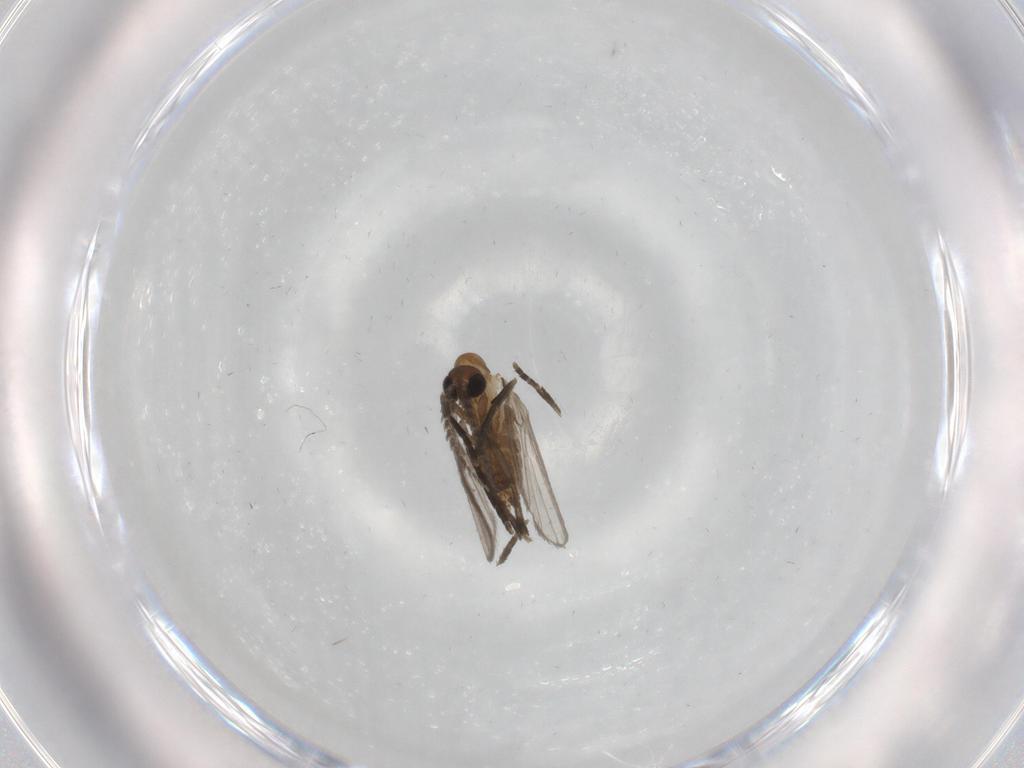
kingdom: Animalia
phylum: Arthropoda
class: Insecta
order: Diptera
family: Psychodidae
